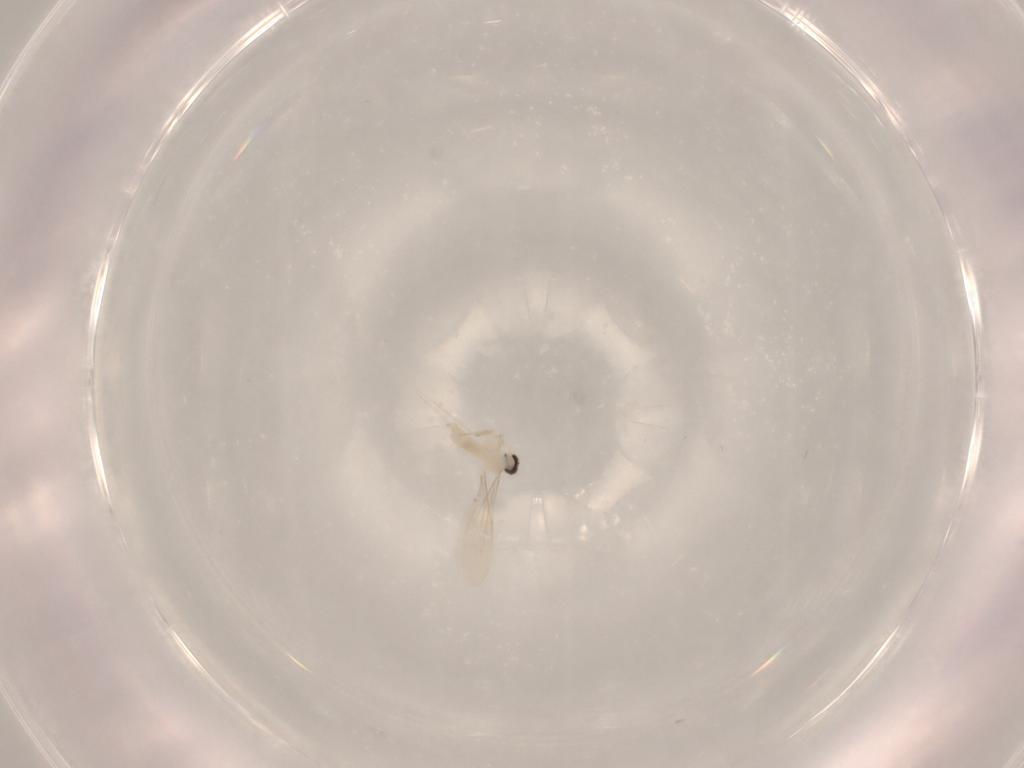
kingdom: Animalia
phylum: Arthropoda
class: Insecta
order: Diptera
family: Cecidomyiidae
